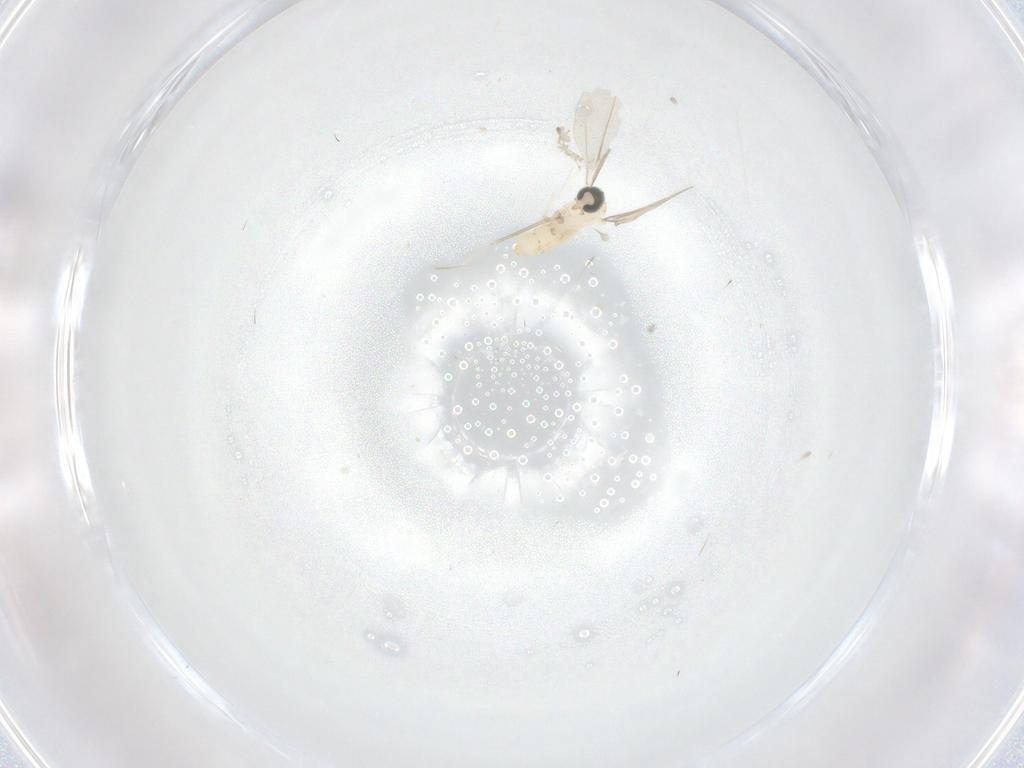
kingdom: Animalia
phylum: Arthropoda
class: Insecta
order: Diptera
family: Cecidomyiidae
